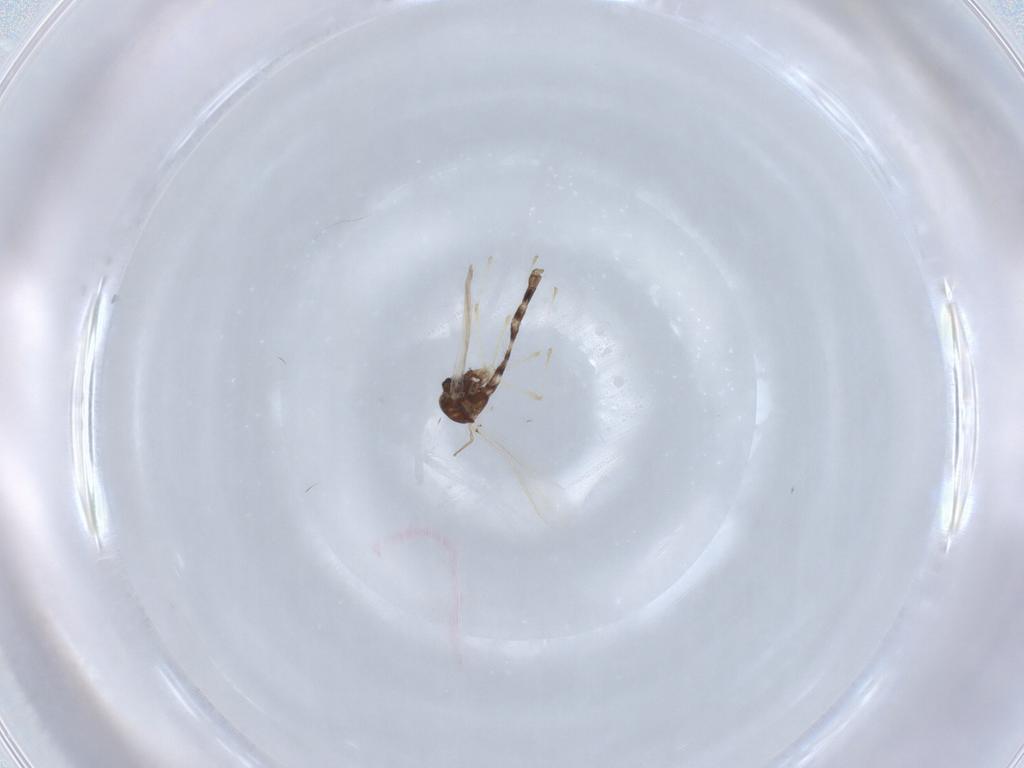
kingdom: Animalia
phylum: Arthropoda
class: Insecta
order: Diptera
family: Chironomidae
